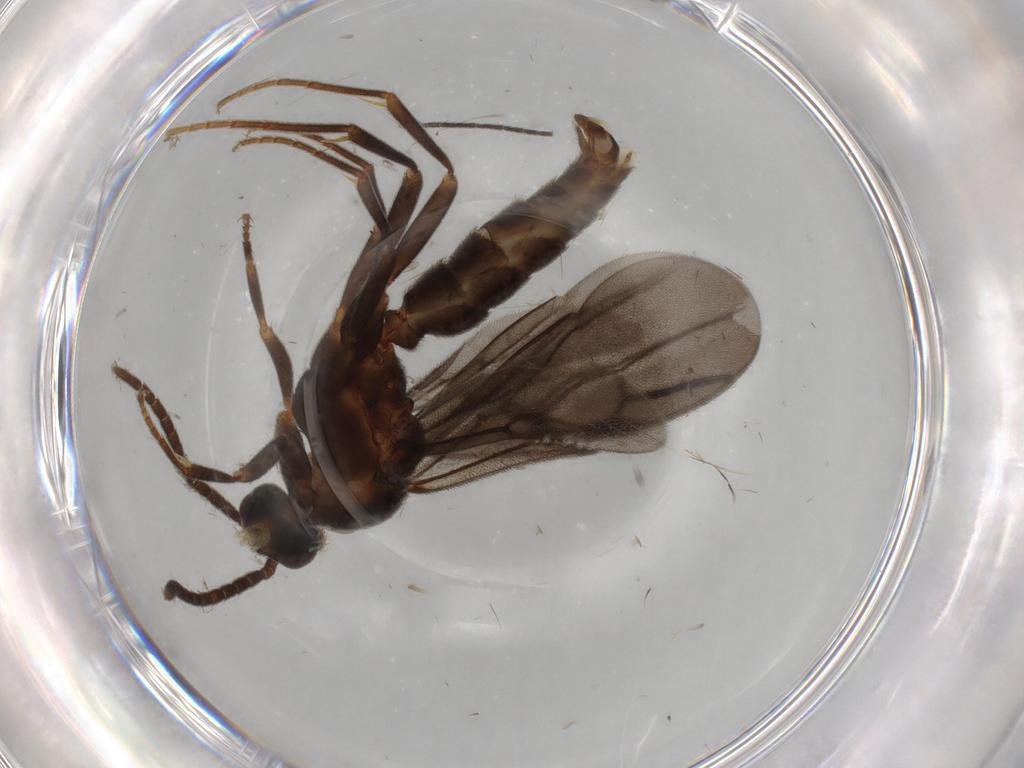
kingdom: Animalia
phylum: Arthropoda
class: Insecta
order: Hymenoptera
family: Formicidae
